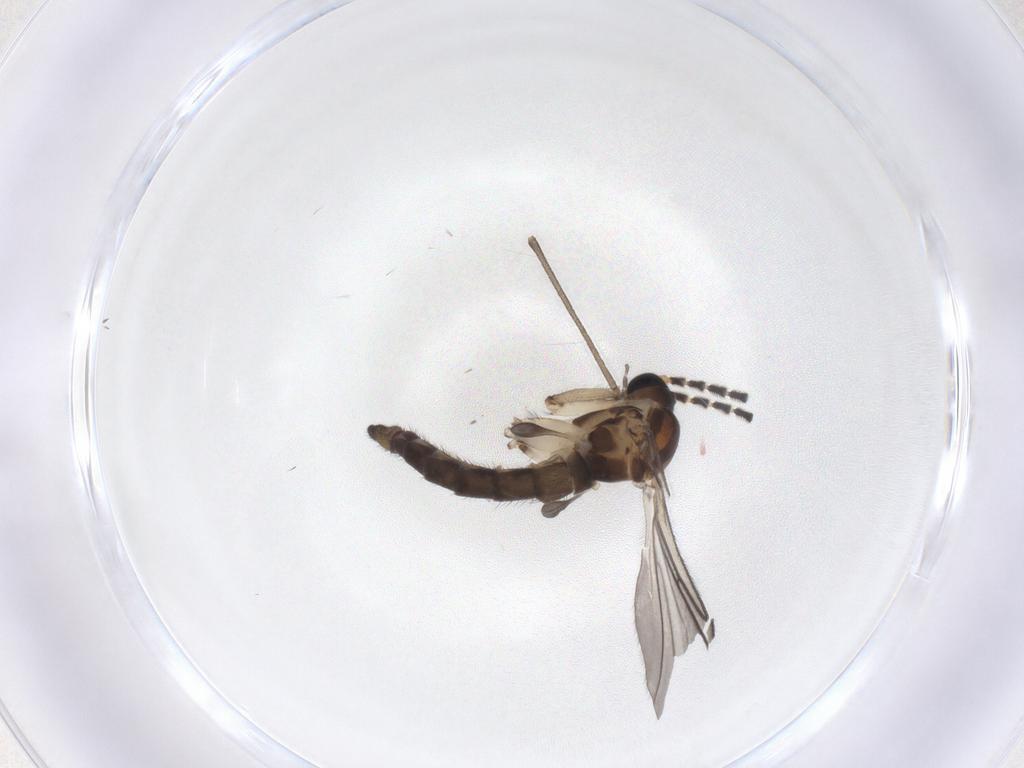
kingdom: Animalia
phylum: Arthropoda
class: Insecta
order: Diptera
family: Sciaridae
